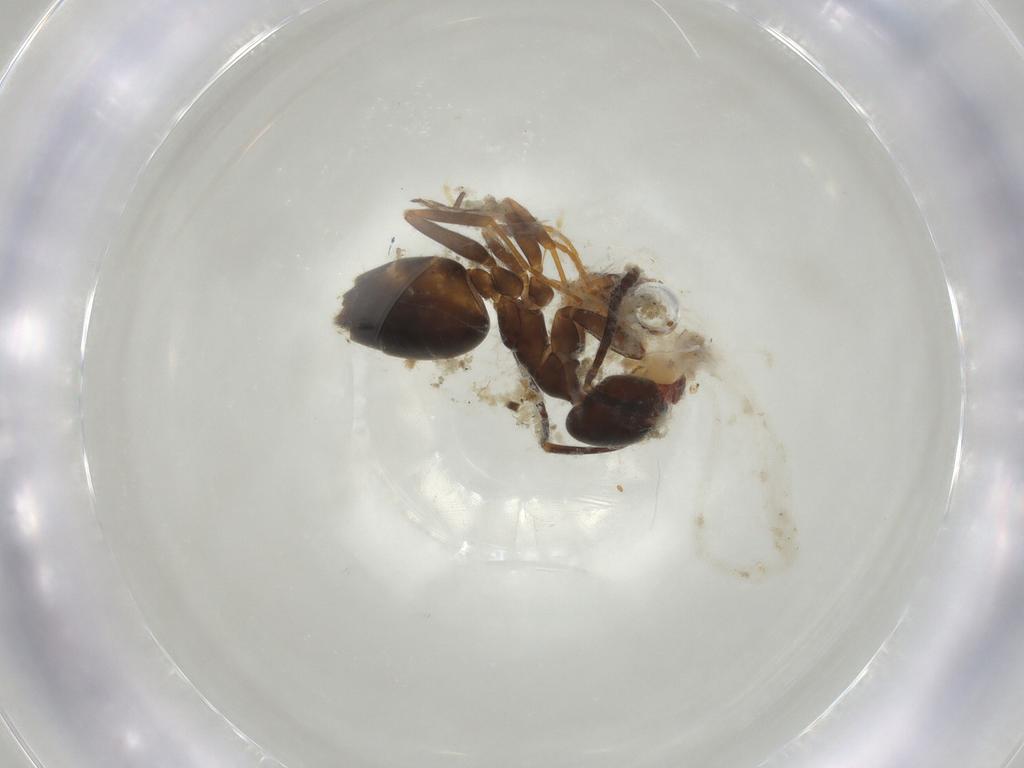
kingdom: Animalia
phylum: Arthropoda
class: Insecta
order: Hymenoptera
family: Formicidae
